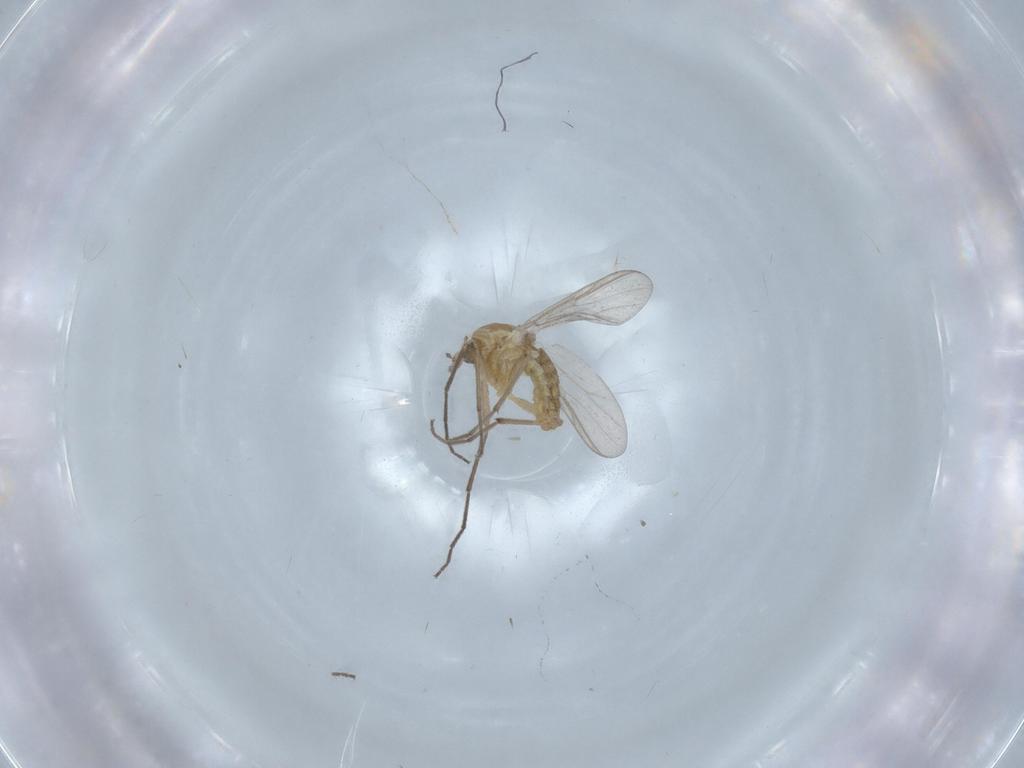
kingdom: Animalia
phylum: Arthropoda
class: Insecta
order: Diptera
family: Chironomidae
